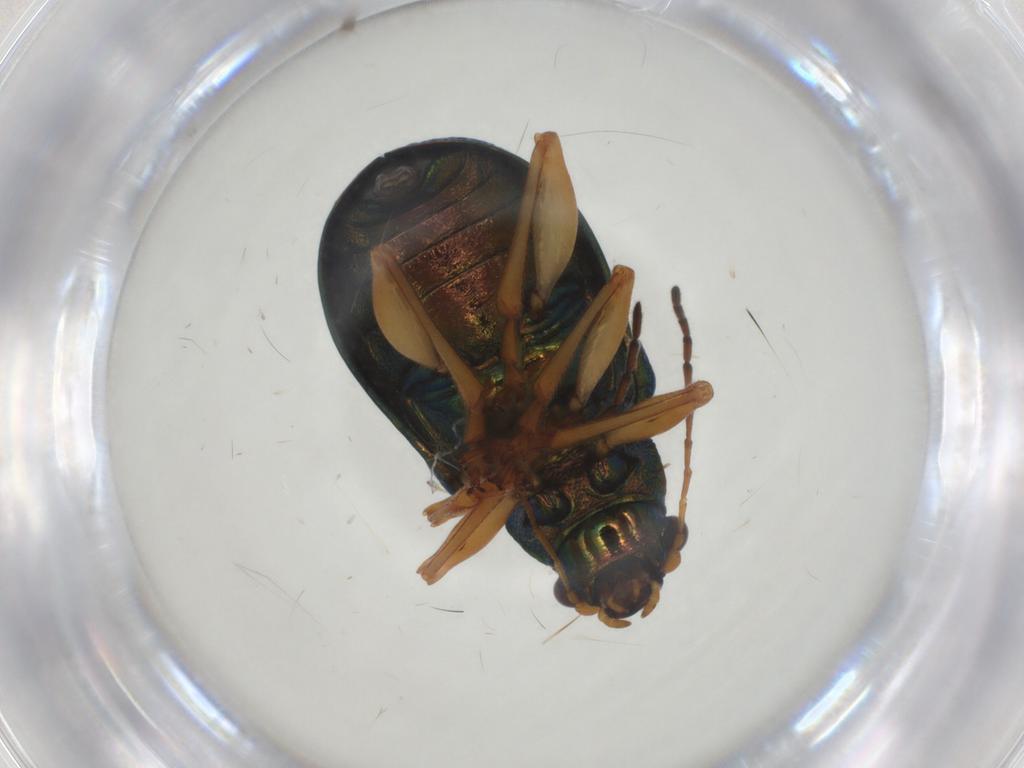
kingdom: Animalia
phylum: Arthropoda
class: Insecta
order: Coleoptera
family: Chrysomelidae
